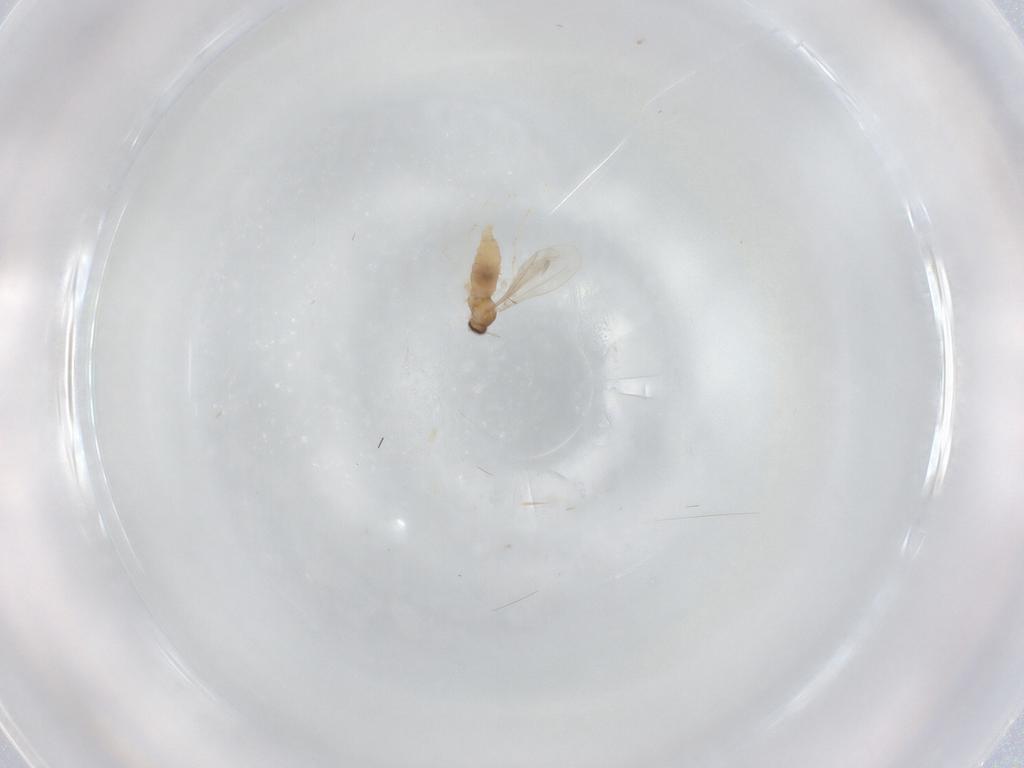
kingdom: Animalia
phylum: Arthropoda
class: Insecta
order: Diptera
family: Cecidomyiidae
